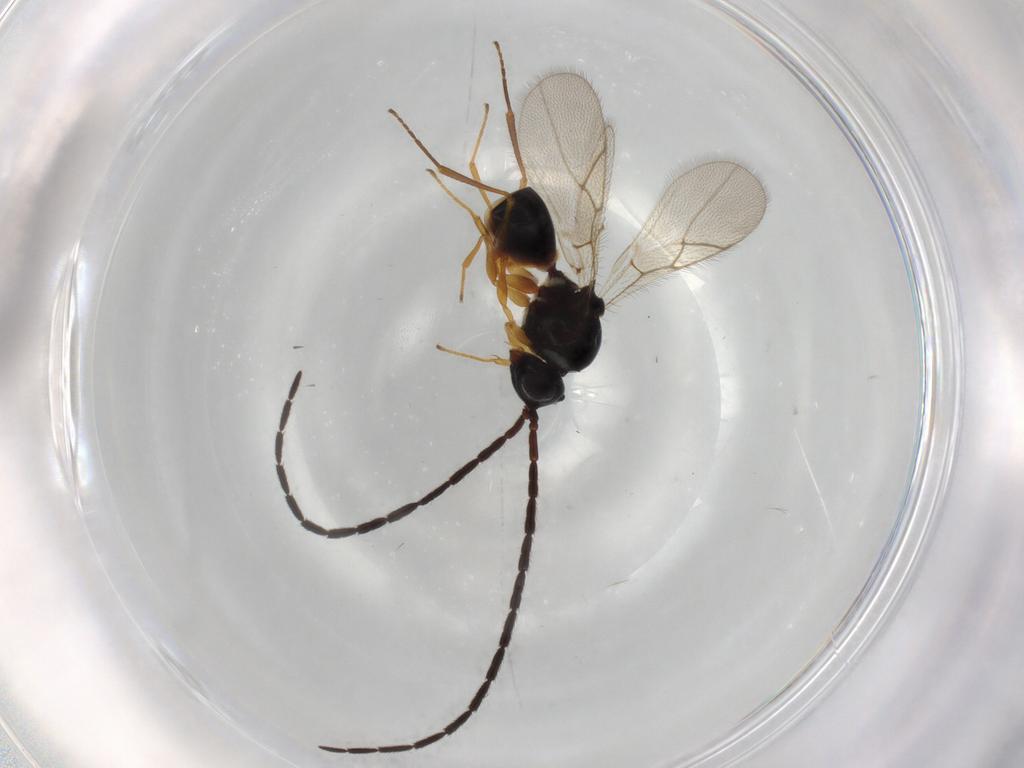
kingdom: Animalia
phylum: Arthropoda
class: Insecta
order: Hymenoptera
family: Figitidae
